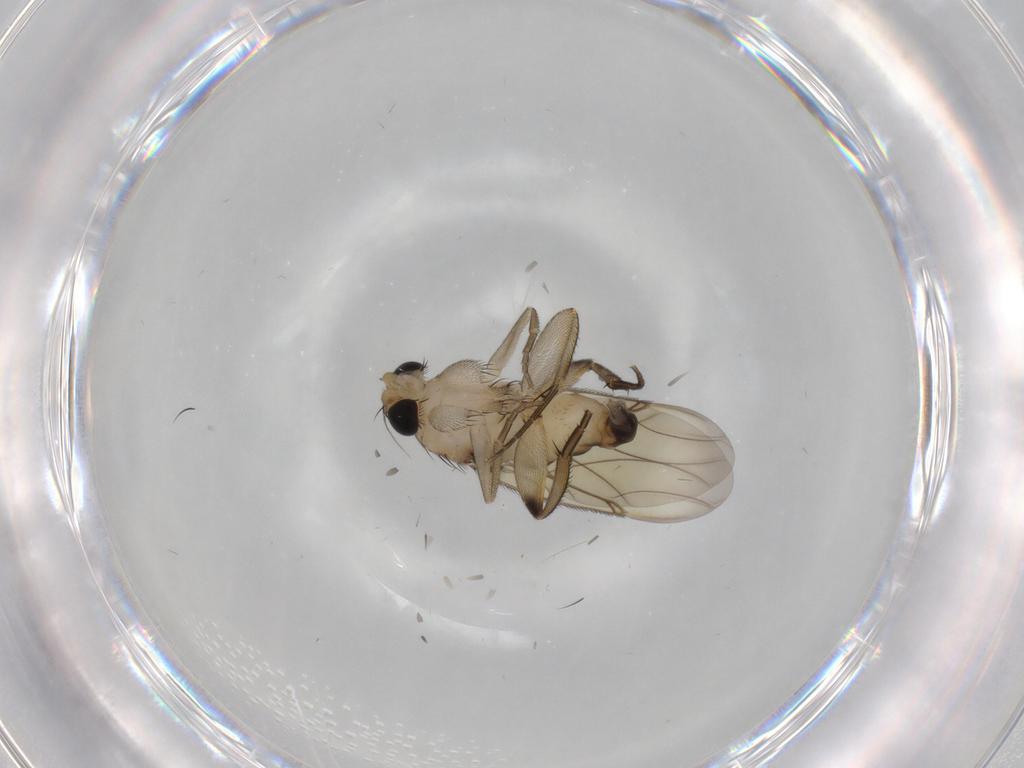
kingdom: Animalia
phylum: Arthropoda
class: Insecta
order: Diptera
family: Phoridae
